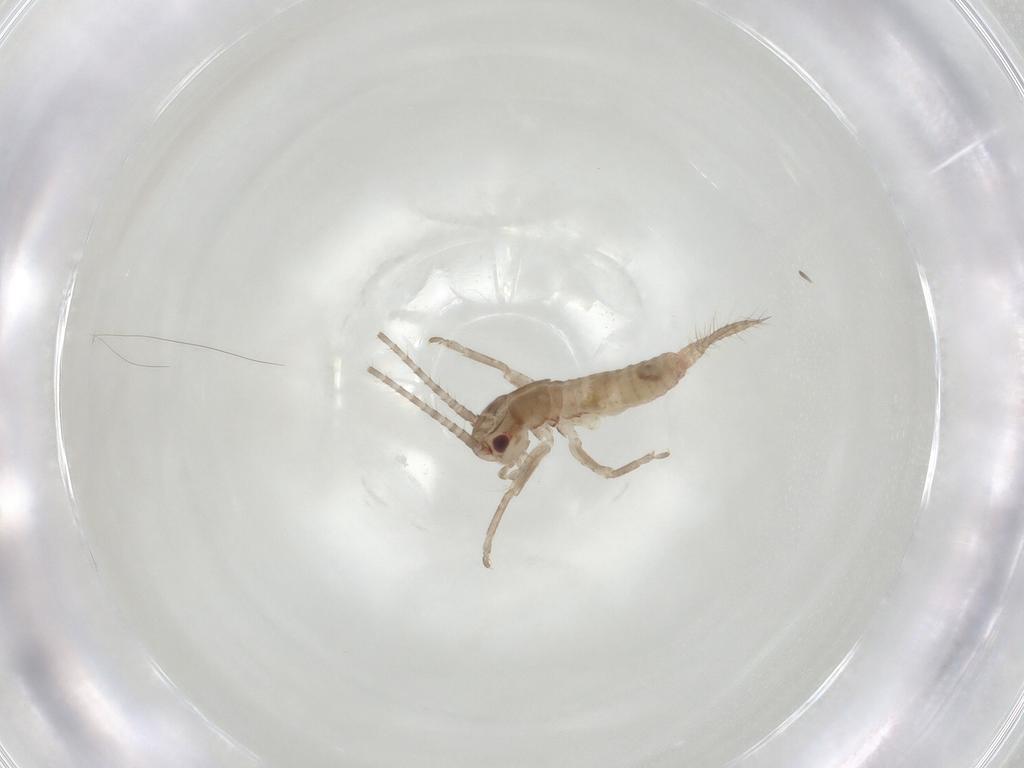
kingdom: Animalia
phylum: Arthropoda
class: Insecta
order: Orthoptera
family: Mogoplistidae
